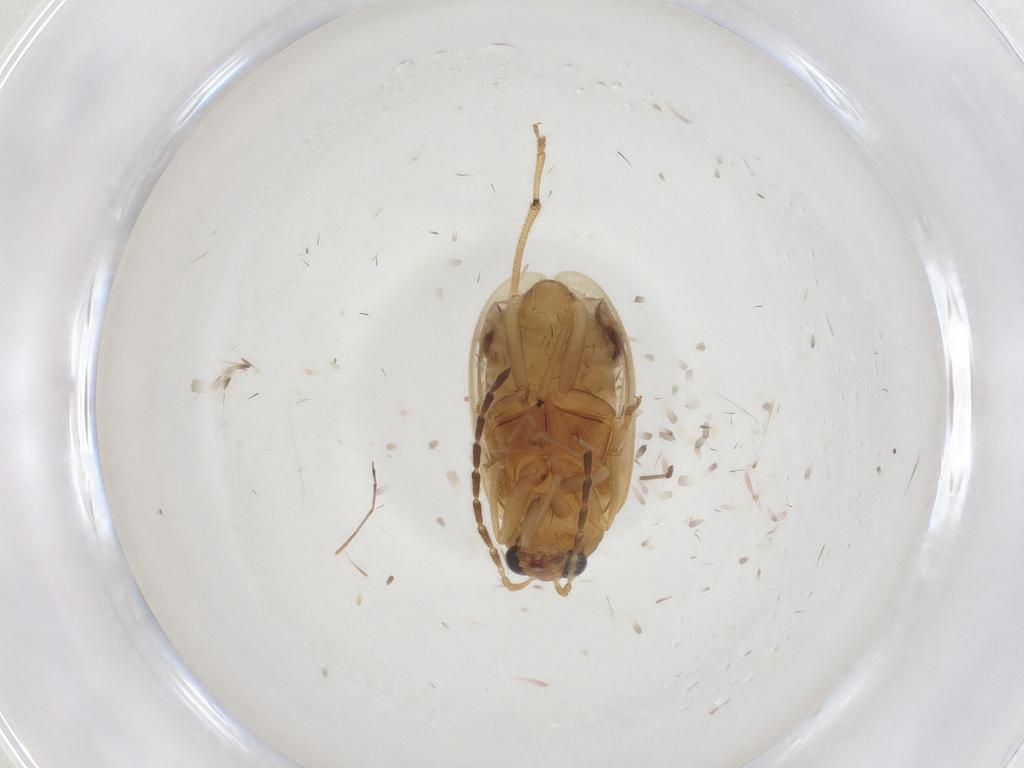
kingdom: Animalia
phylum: Arthropoda
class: Insecta
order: Coleoptera
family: Chrysomelidae
